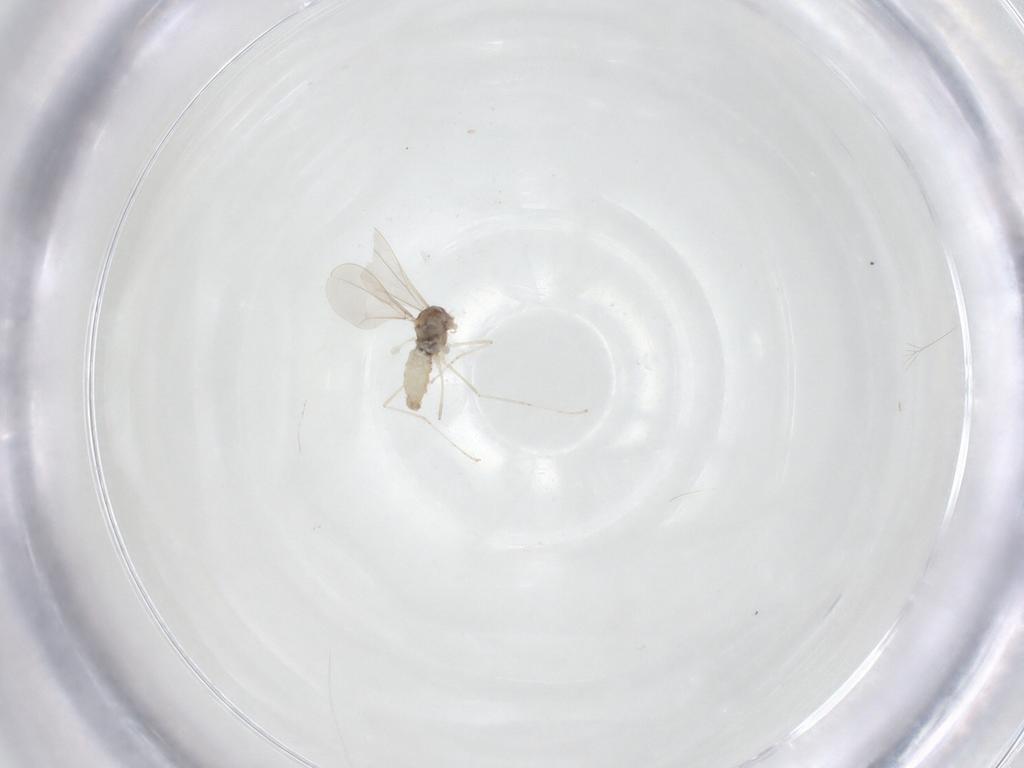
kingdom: Animalia
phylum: Arthropoda
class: Insecta
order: Diptera
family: Cecidomyiidae
